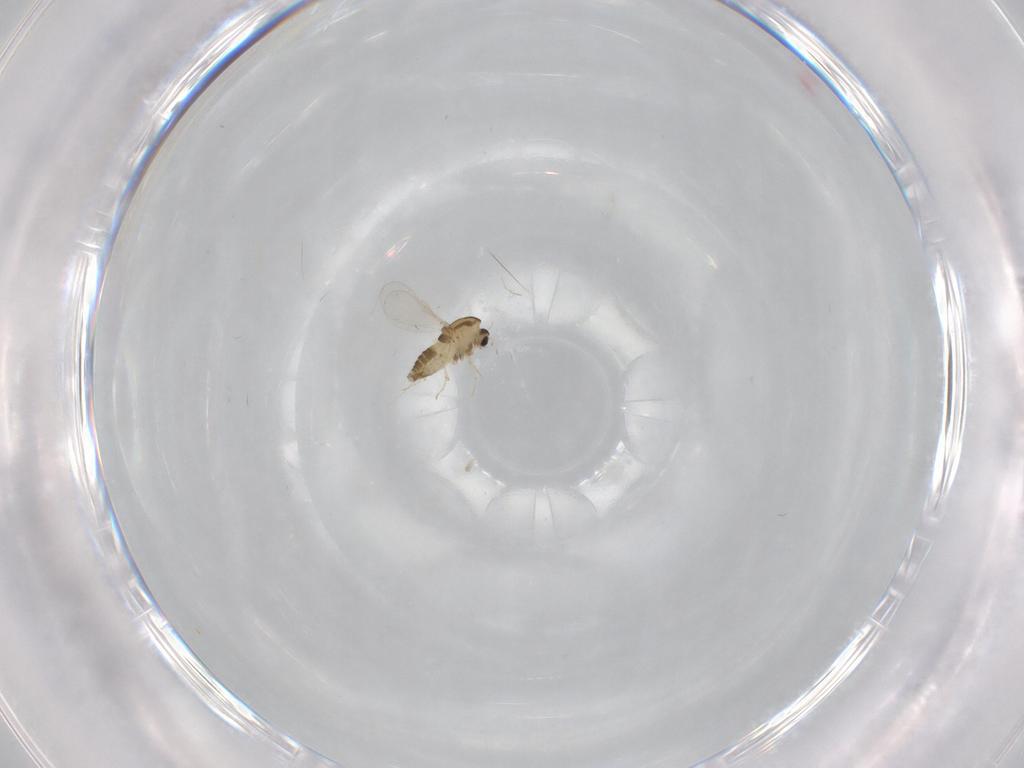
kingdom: Animalia
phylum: Arthropoda
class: Insecta
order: Diptera
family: Chironomidae
